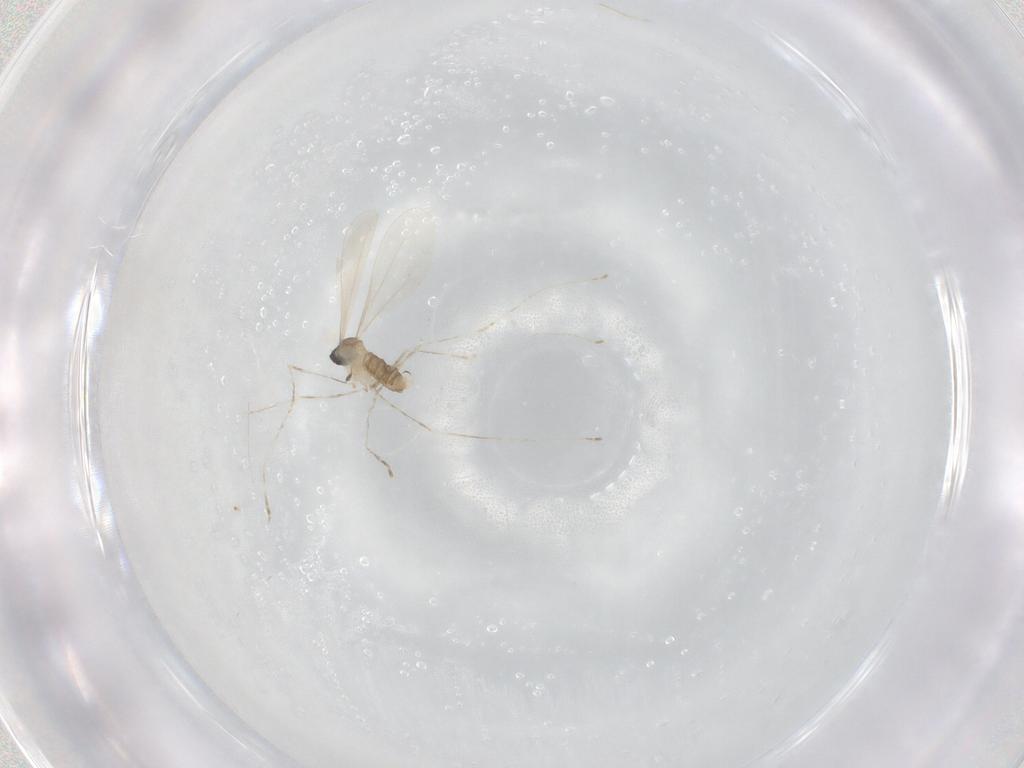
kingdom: Animalia
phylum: Arthropoda
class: Insecta
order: Diptera
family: Cecidomyiidae
